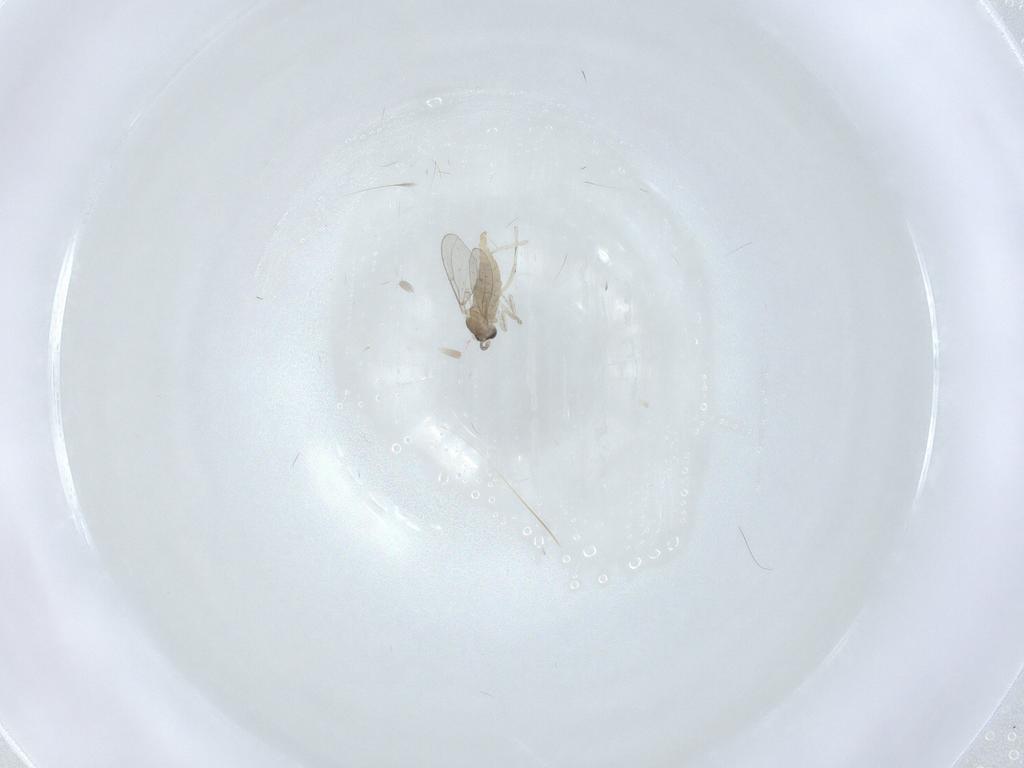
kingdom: Animalia
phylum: Arthropoda
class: Insecta
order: Diptera
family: Cecidomyiidae
